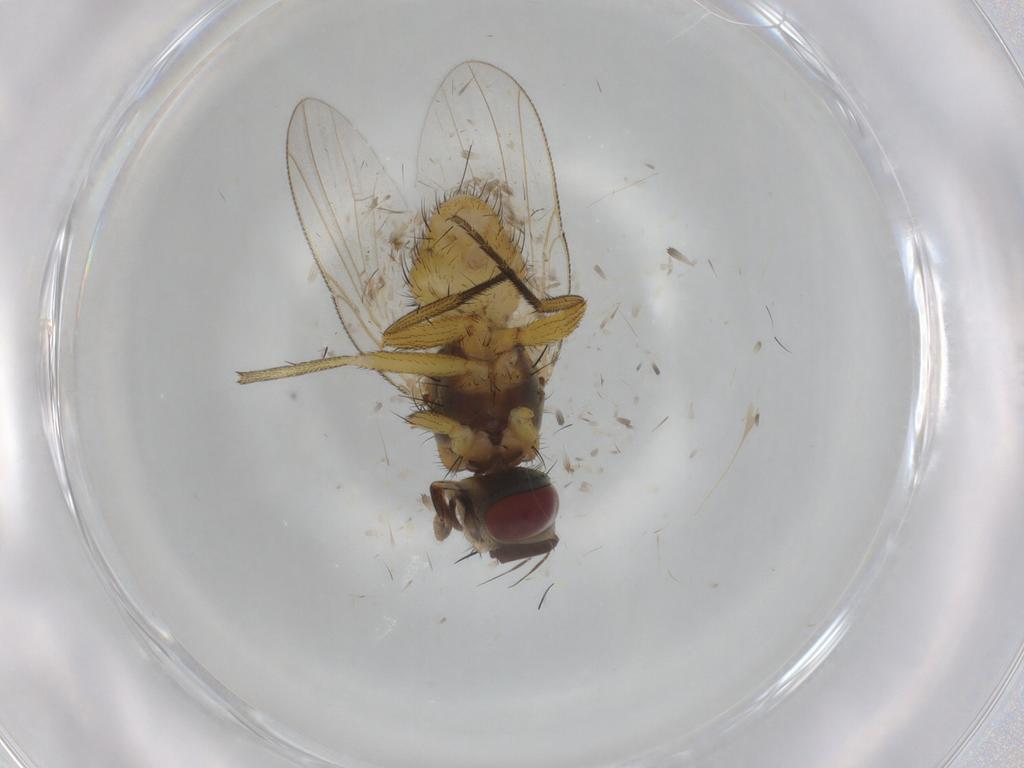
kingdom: Animalia
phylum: Arthropoda
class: Insecta
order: Diptera
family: Muscidae
